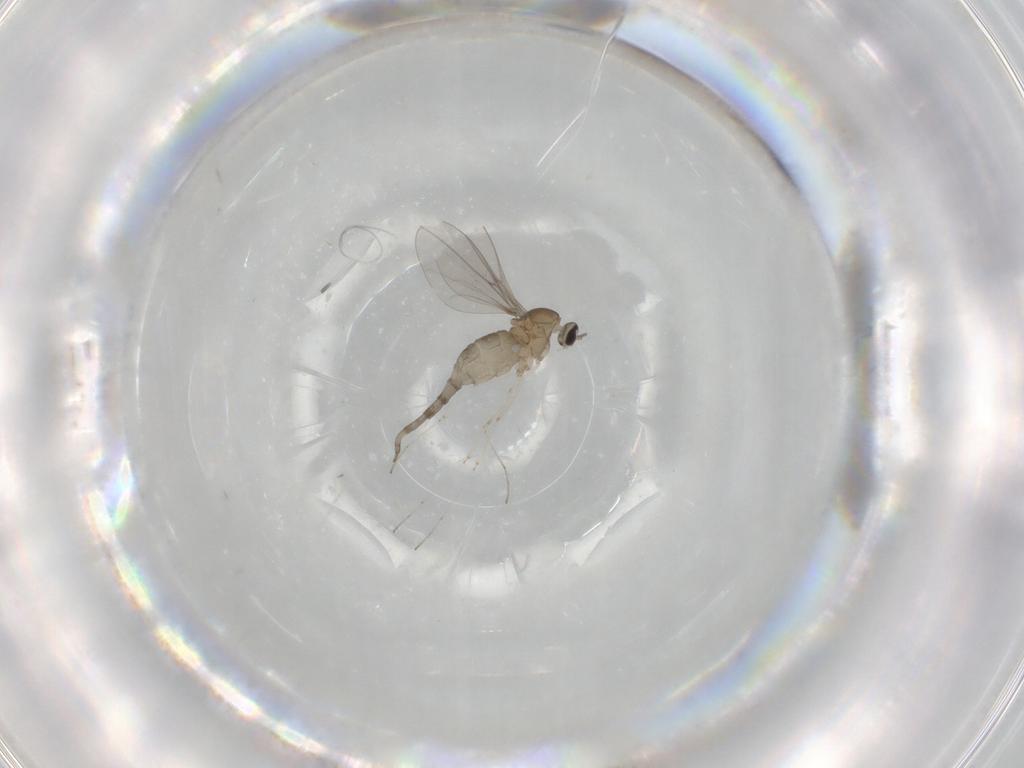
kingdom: Animalia
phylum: Arthropoda
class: Insecta
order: Diptera
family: Cecidomyiidae
